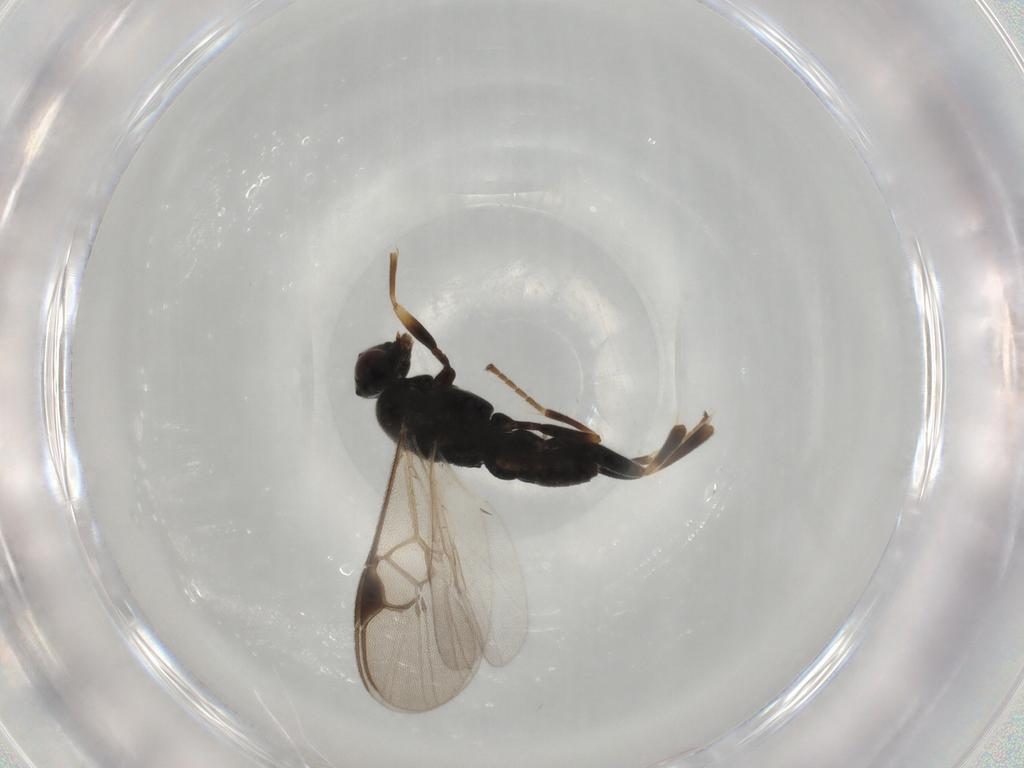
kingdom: Animalia
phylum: Arthropoda
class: Insecta
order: Hymenoptera
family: Braconidae
